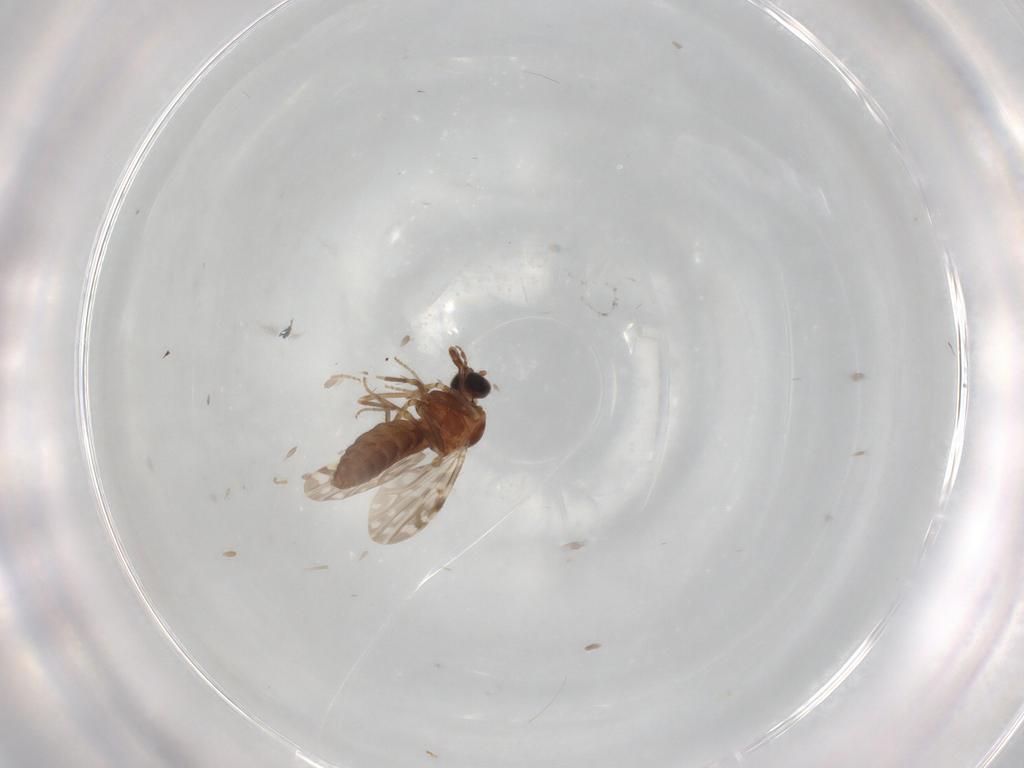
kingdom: Animalia
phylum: Arthropoda
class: Insecta
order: Diptera
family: Ceratopogonidae
